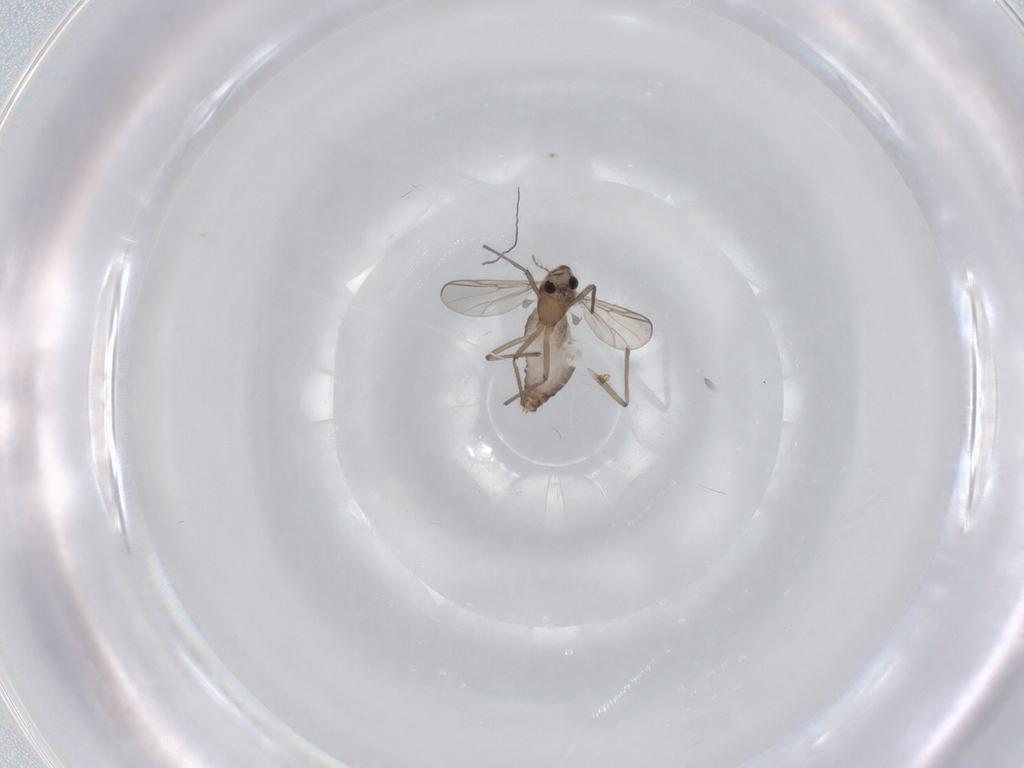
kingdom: Animalia
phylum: Arthropoda
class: Insecta
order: Diptera
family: Chironomidae
